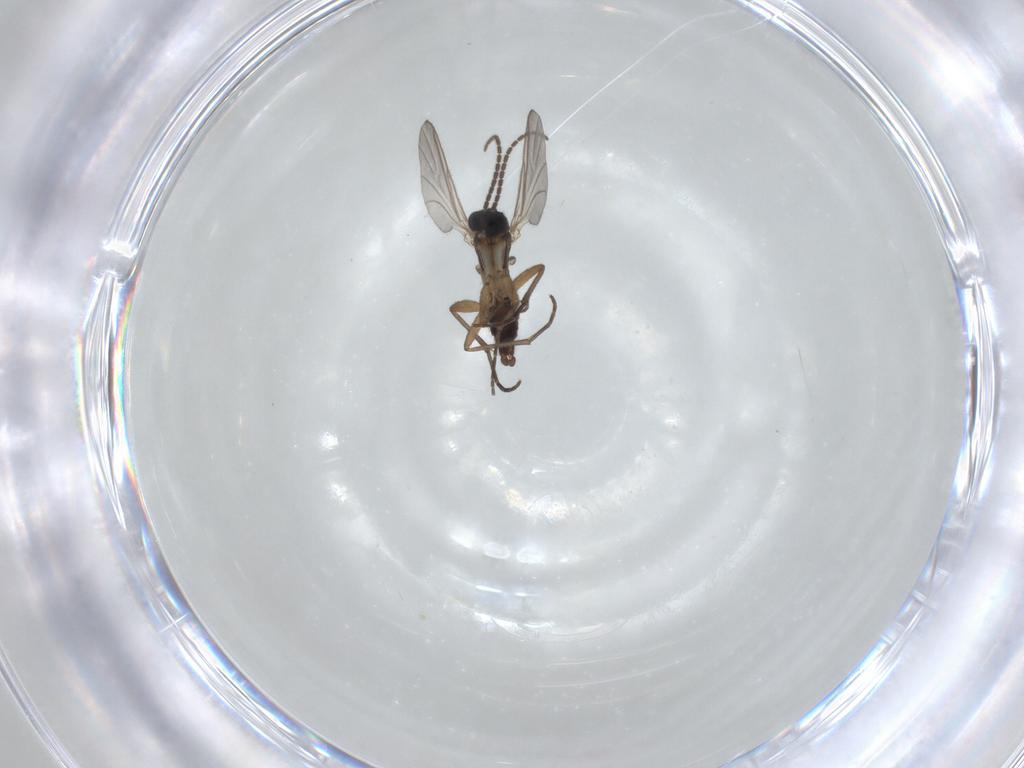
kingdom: Animalia
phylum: Arthropoda
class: Insecta
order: Diptera
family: Sciaridae
